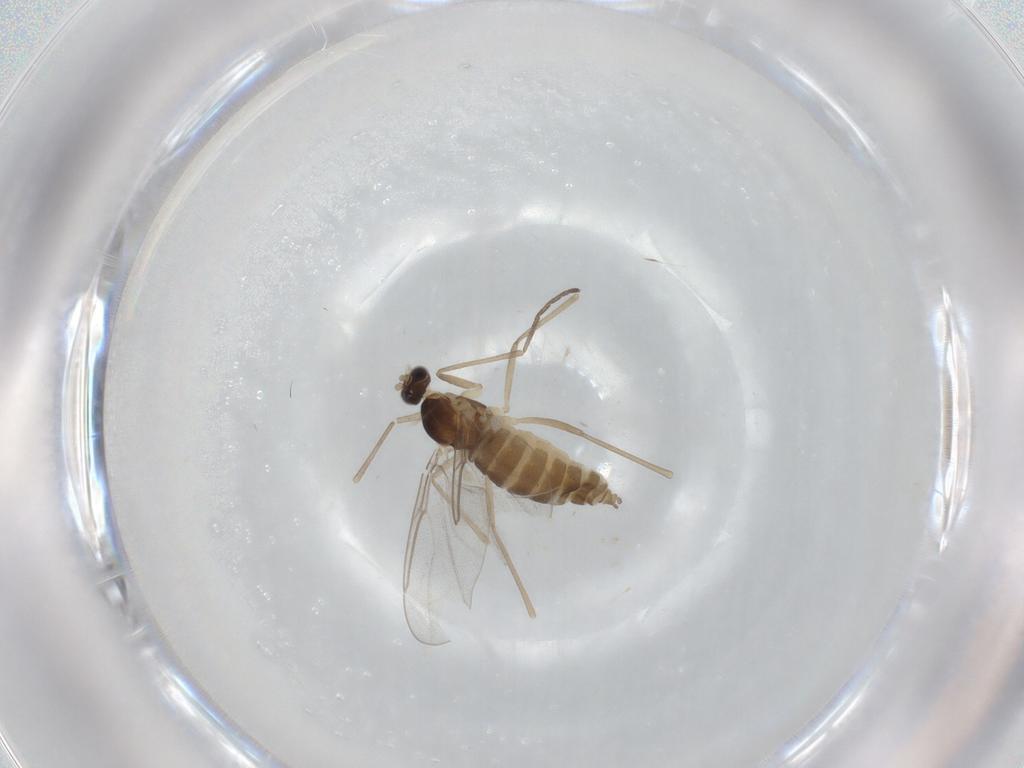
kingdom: Animalia
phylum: Arthropoda
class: Insecta
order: Diptera
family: Cecidomyiidae
